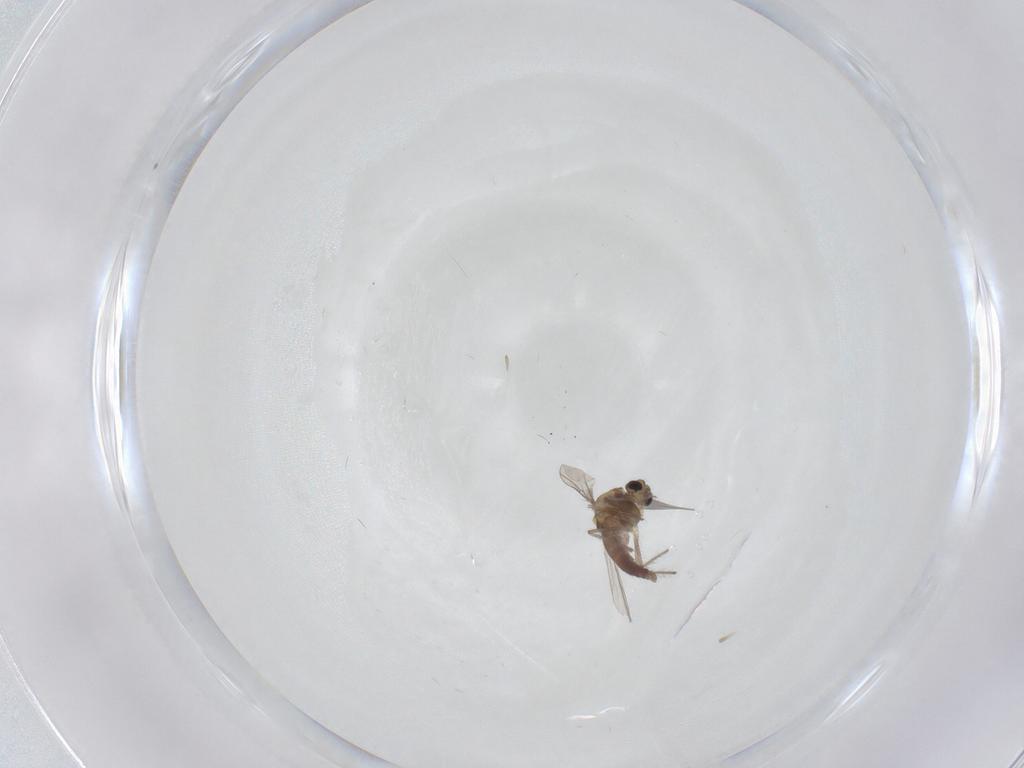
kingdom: Animalia
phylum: Arthropoda
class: Insecta
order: Diptera
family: Chironomidae
